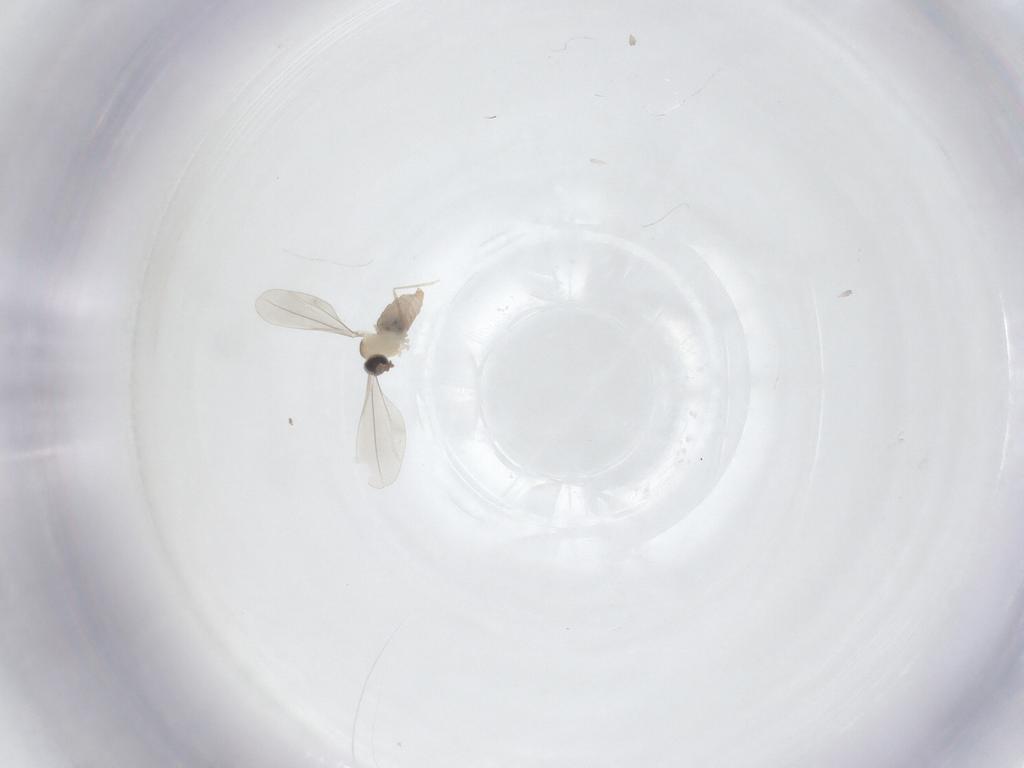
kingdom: Animalia
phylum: Arthropoda
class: Insecta
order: Diptera
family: Cecidomyiidae
